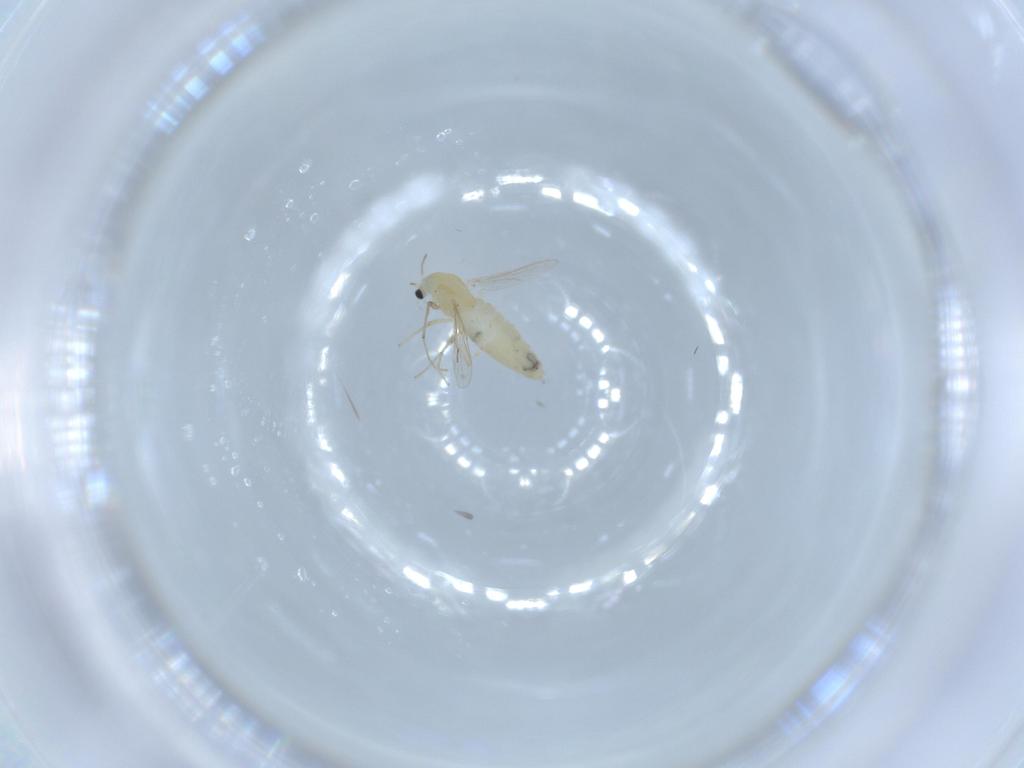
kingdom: Animalia
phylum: Arthropoda
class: Insecta
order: Diptera
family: Chironomidae
